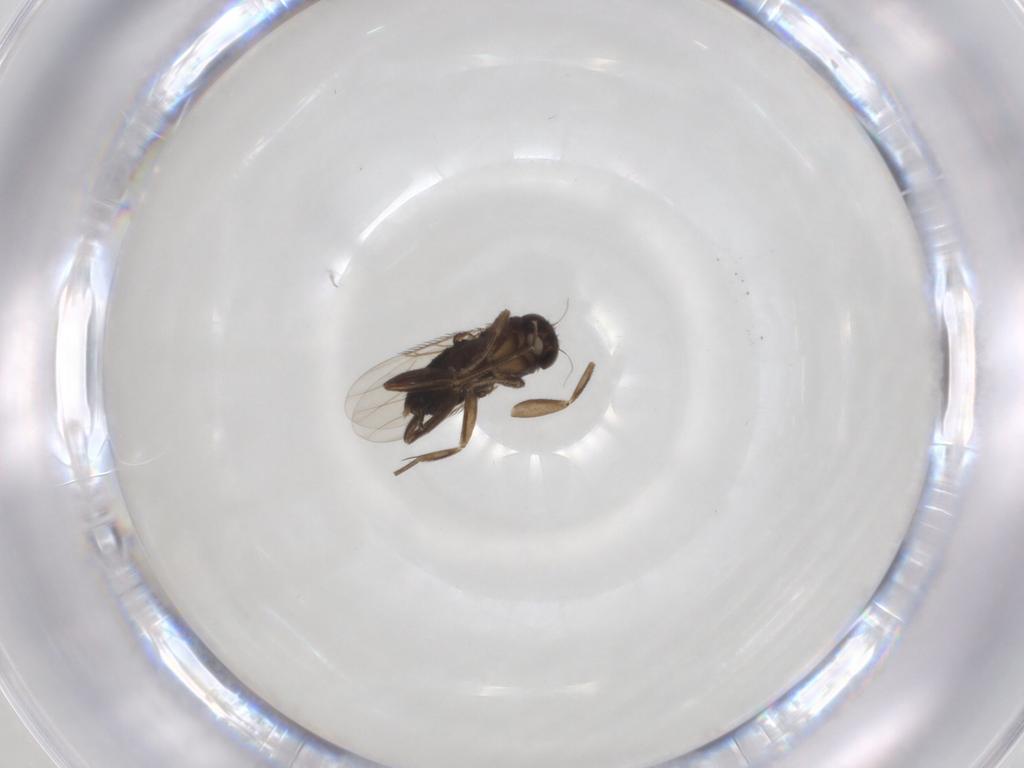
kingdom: Animalia
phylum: Arthropoda
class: Insecta
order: Diptera
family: Phoridae
